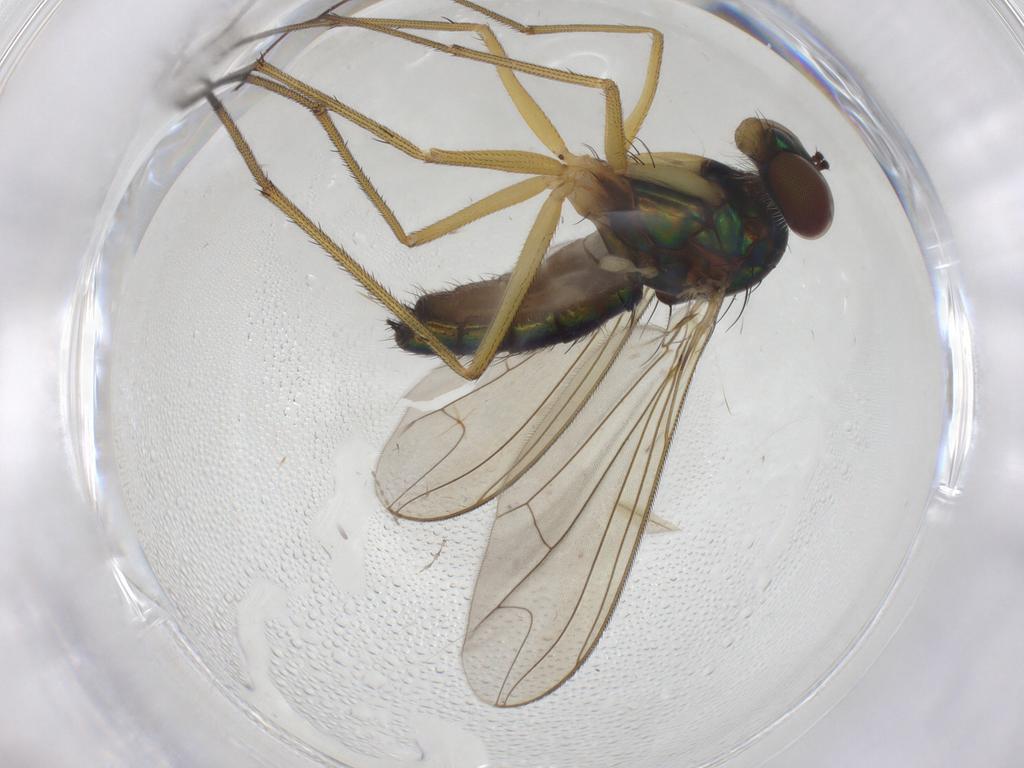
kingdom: Animalia
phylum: Arthropoda
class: Insecta
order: Diptera
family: Dolichopodidae
